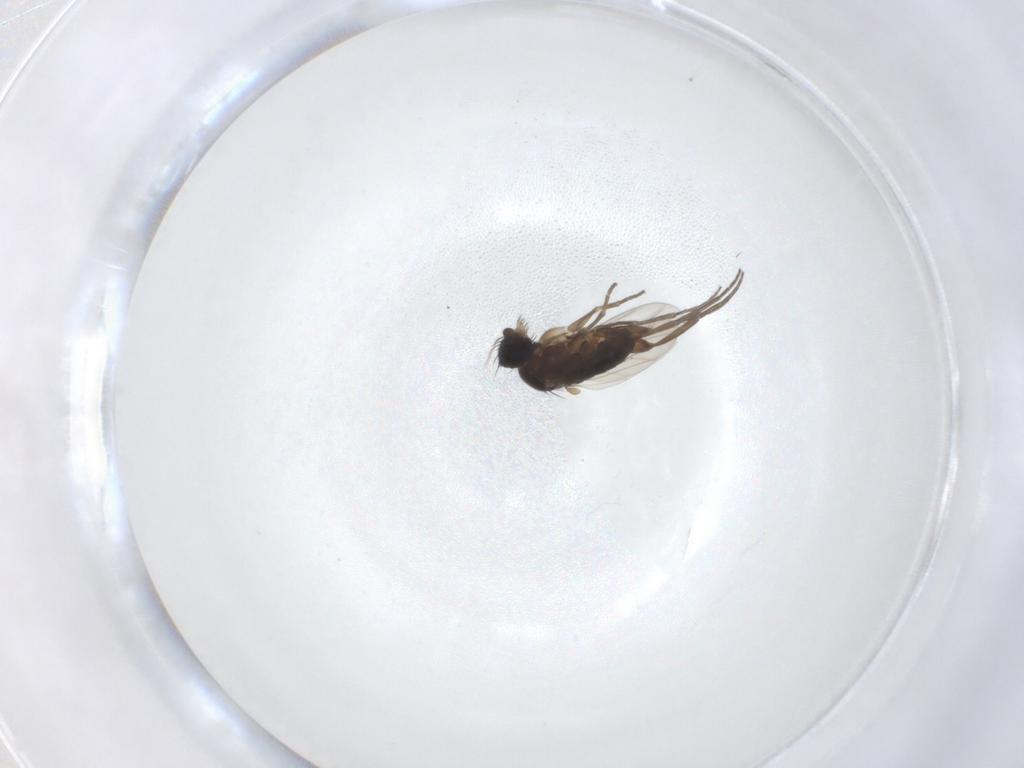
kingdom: Animalia
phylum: Arthropoda
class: Insecta
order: Diptera
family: Phoridae
